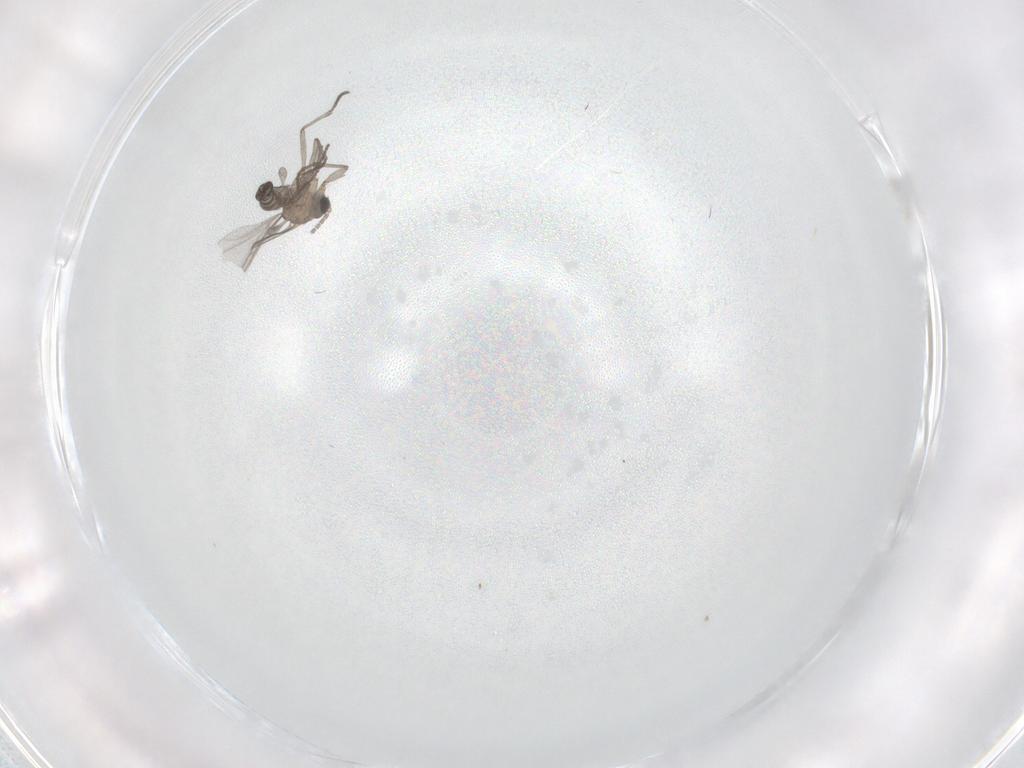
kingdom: Animalia
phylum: Arthropoda
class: Insecta
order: Diptera
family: Sciaridae
